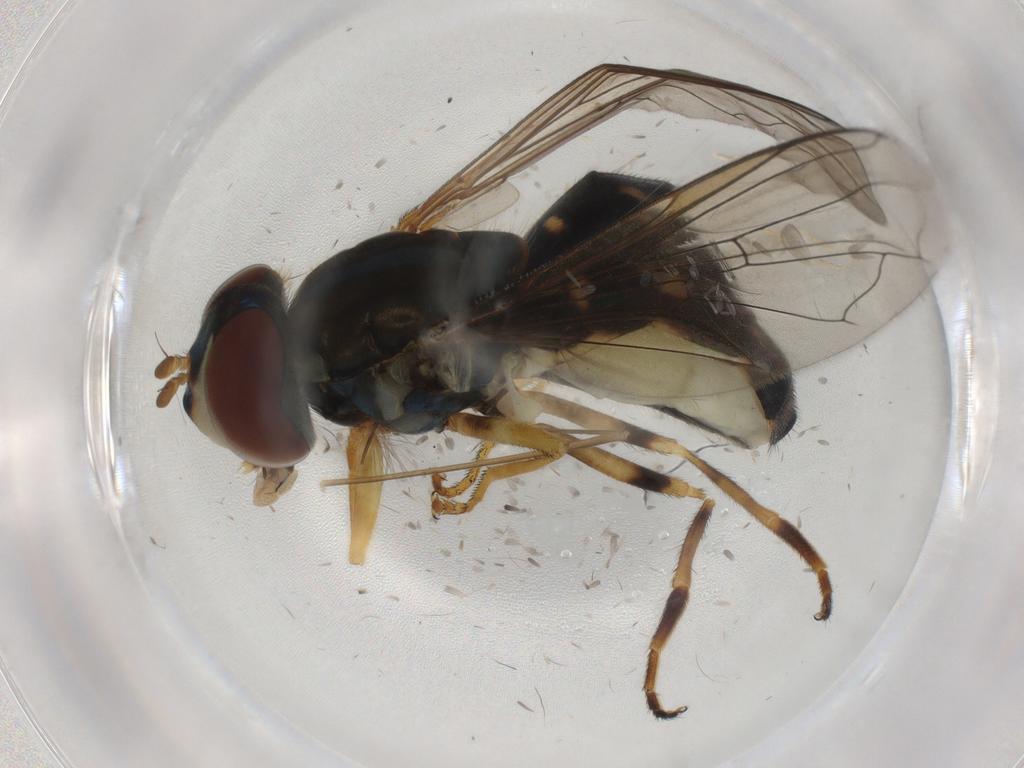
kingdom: Animalia
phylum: Arthropoda
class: Insecta
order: Diptera
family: Syrphidae
